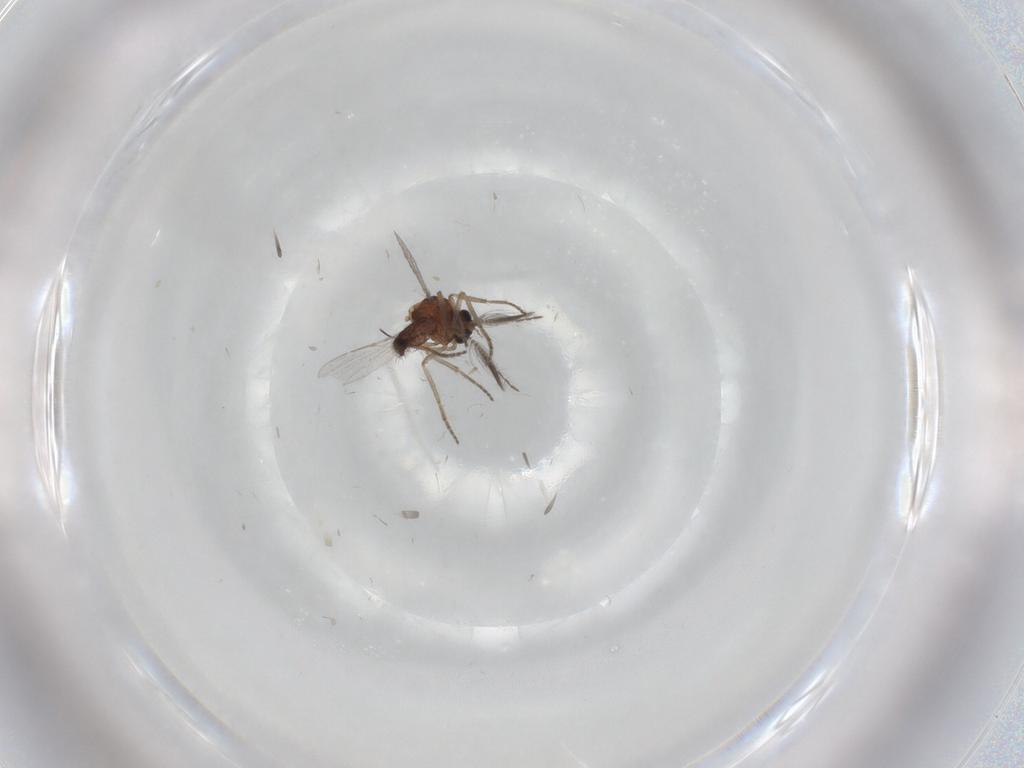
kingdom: Animalia
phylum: Arthropoda
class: Insecta
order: Diptera
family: Ceratopogonidae
